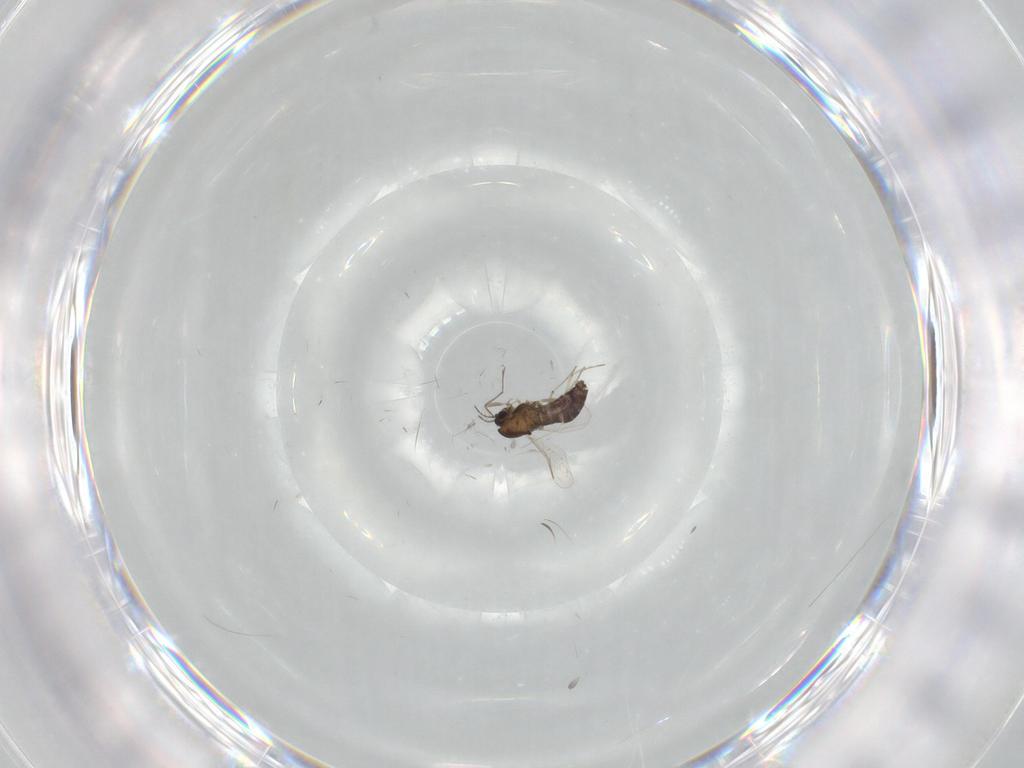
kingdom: Animalia
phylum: Arthropoda
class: Insecta
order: Diptera
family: Chironomidae
